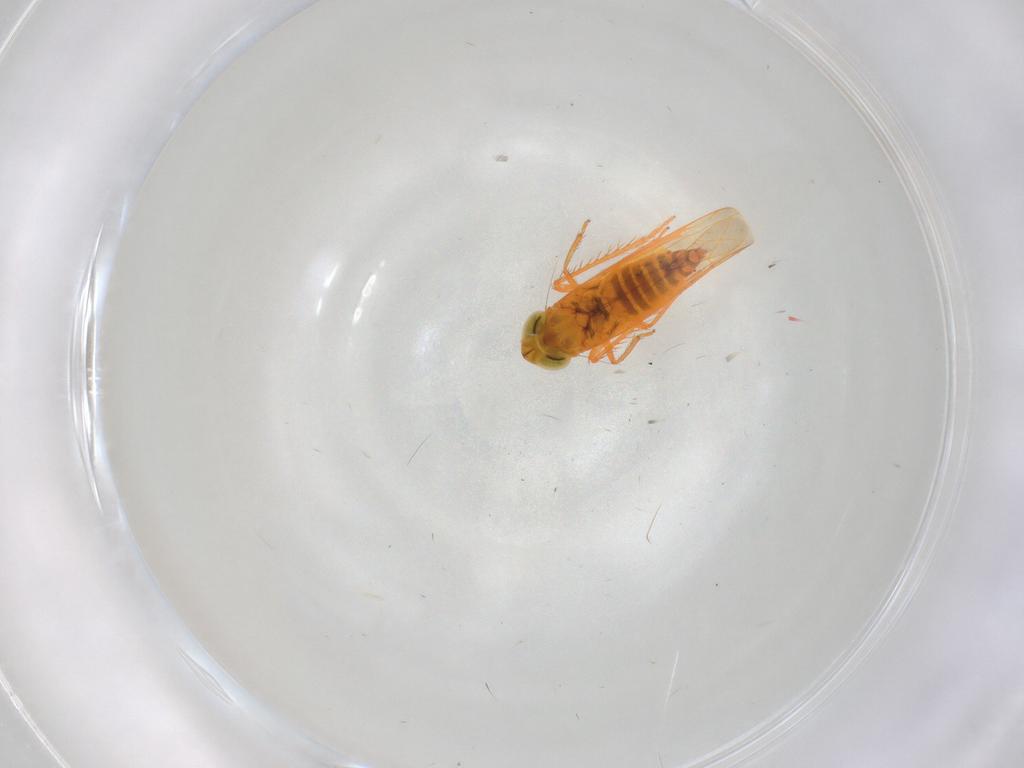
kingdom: Animalia
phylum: Arthropoda
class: Insecta
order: Hemiptera
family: Cicadellidae
